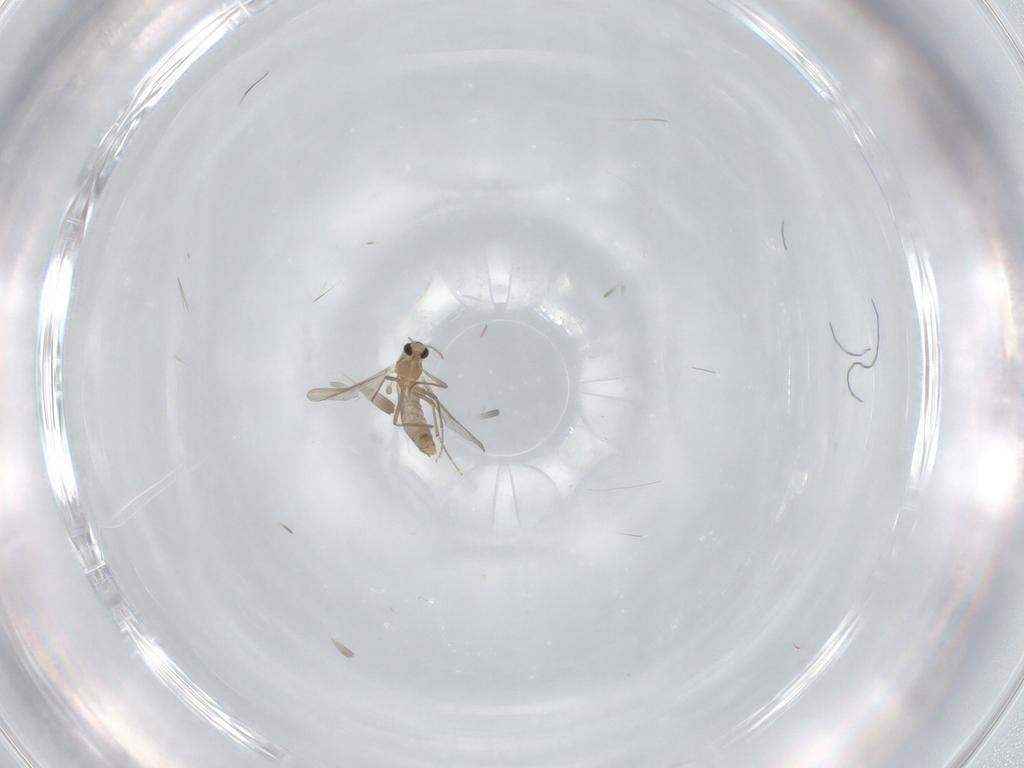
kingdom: Animalia
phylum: Arthropoda
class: Insecta
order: Diptera
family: Chironomidae
